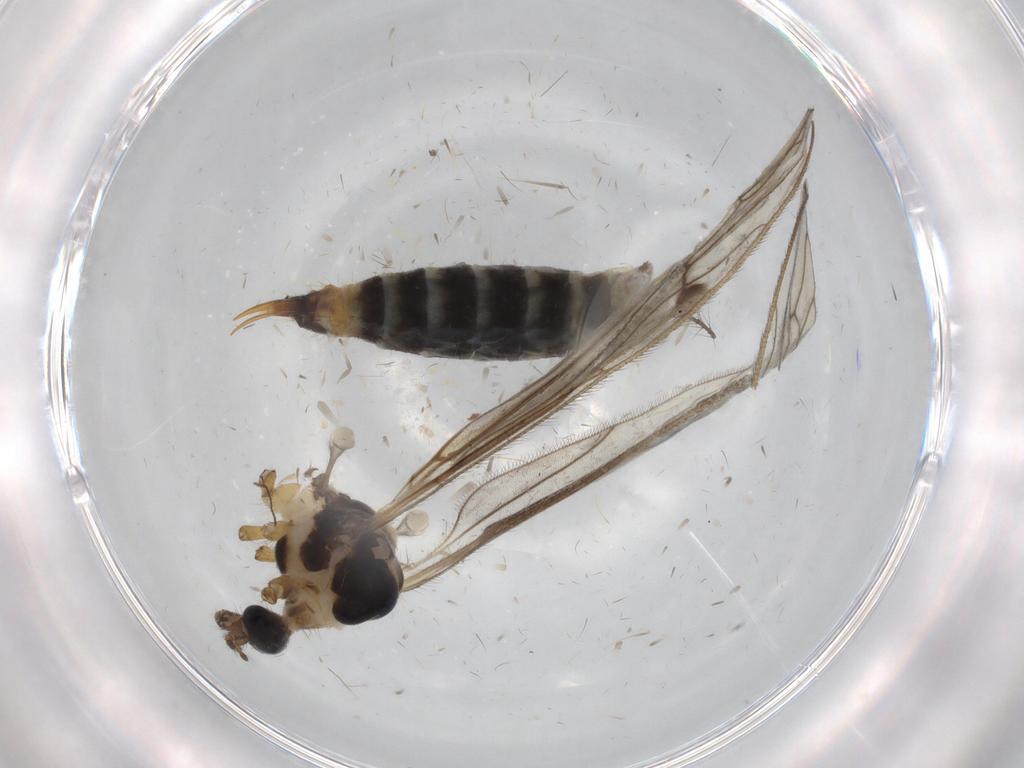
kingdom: Animalia
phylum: Arthropoda
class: Insecta
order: Diptera
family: Limoniidae
